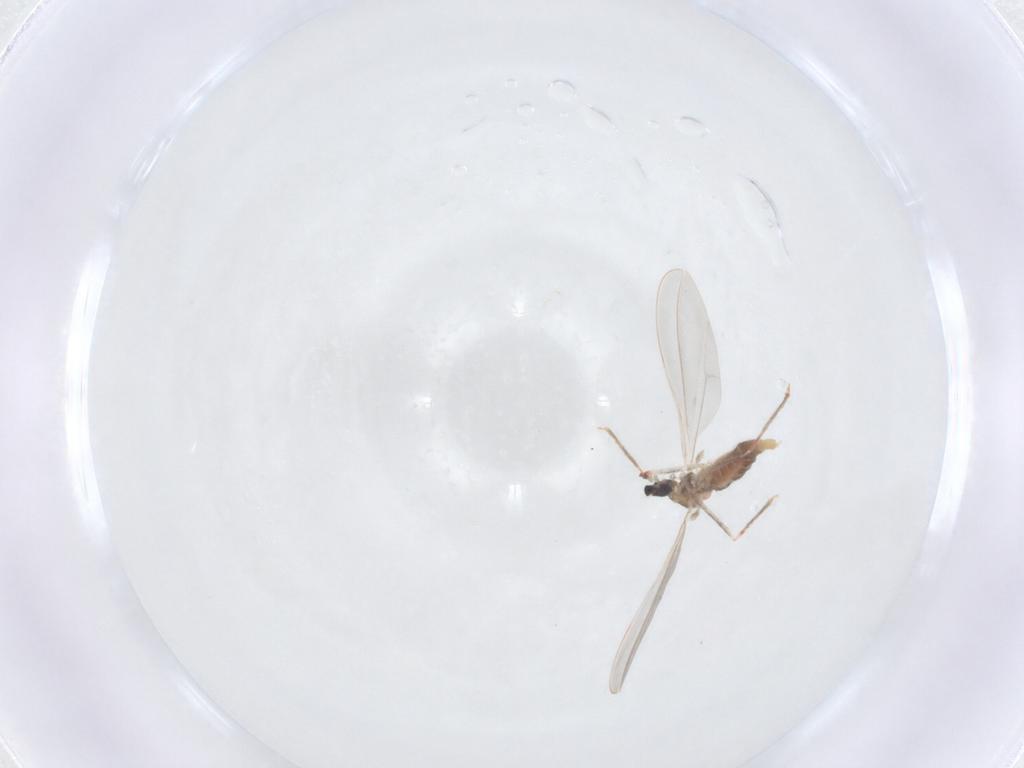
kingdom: Animalia
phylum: Arthropoda
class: Insecta
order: Diptera
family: Cecidomyiidae
